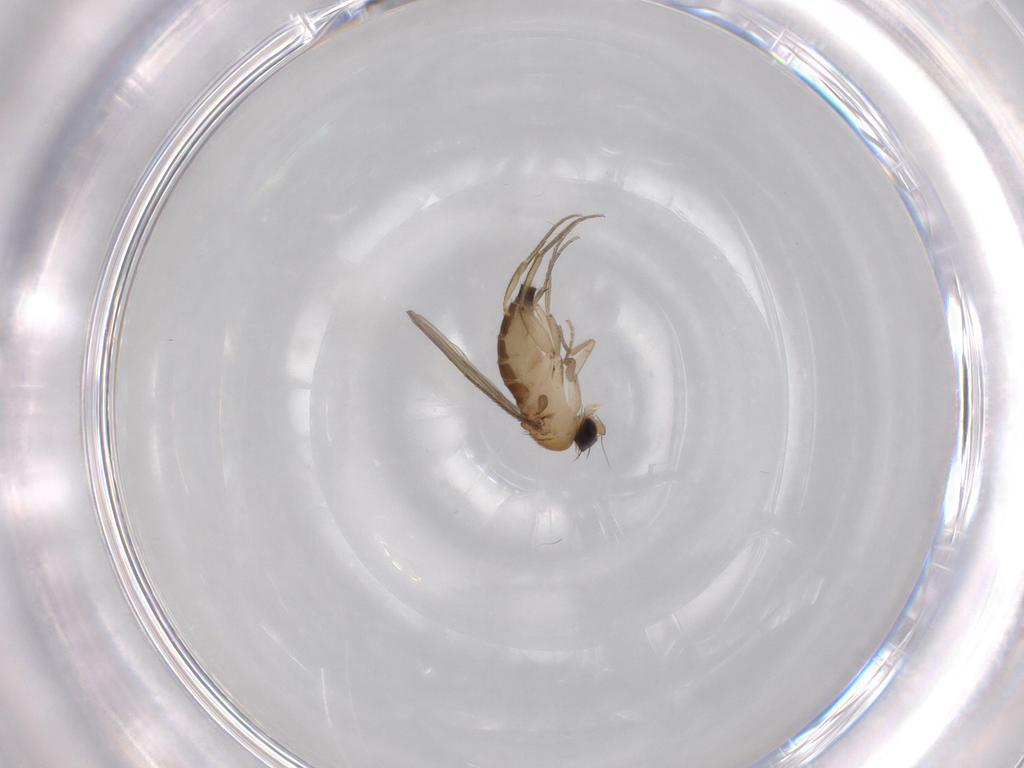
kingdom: Animalia
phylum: Arthropoda
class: Insecta
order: Diptera
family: Phoridae
